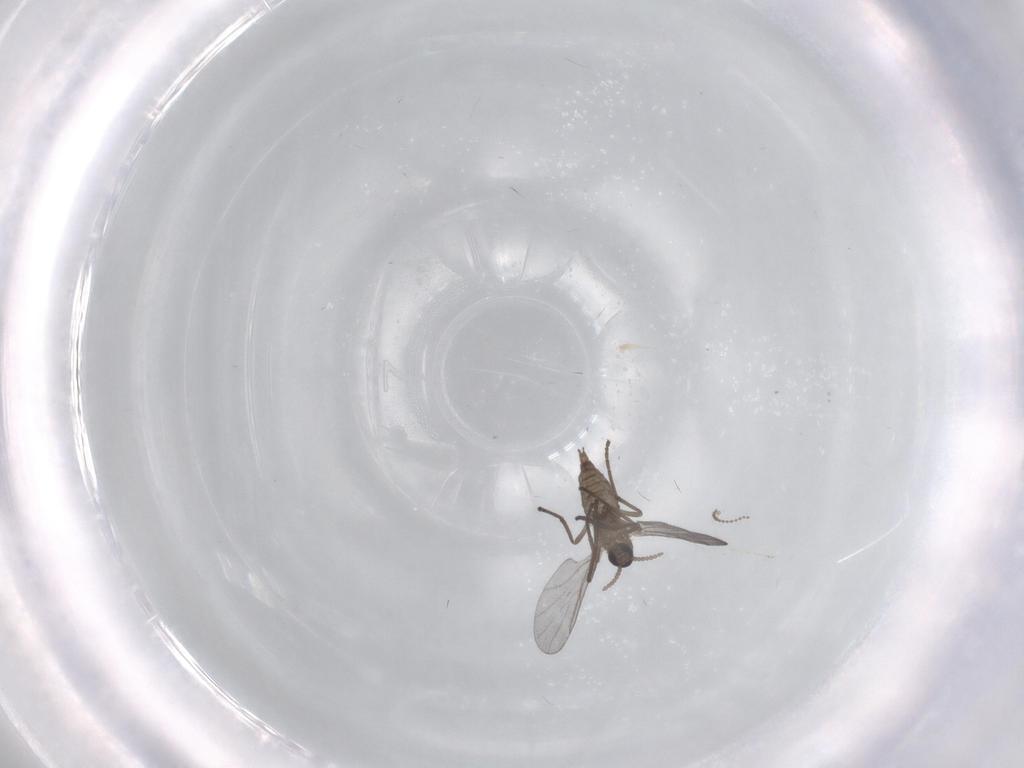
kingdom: Animalia
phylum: Arthropoda
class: Insecta
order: Diptera
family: Cecidomyiidae
